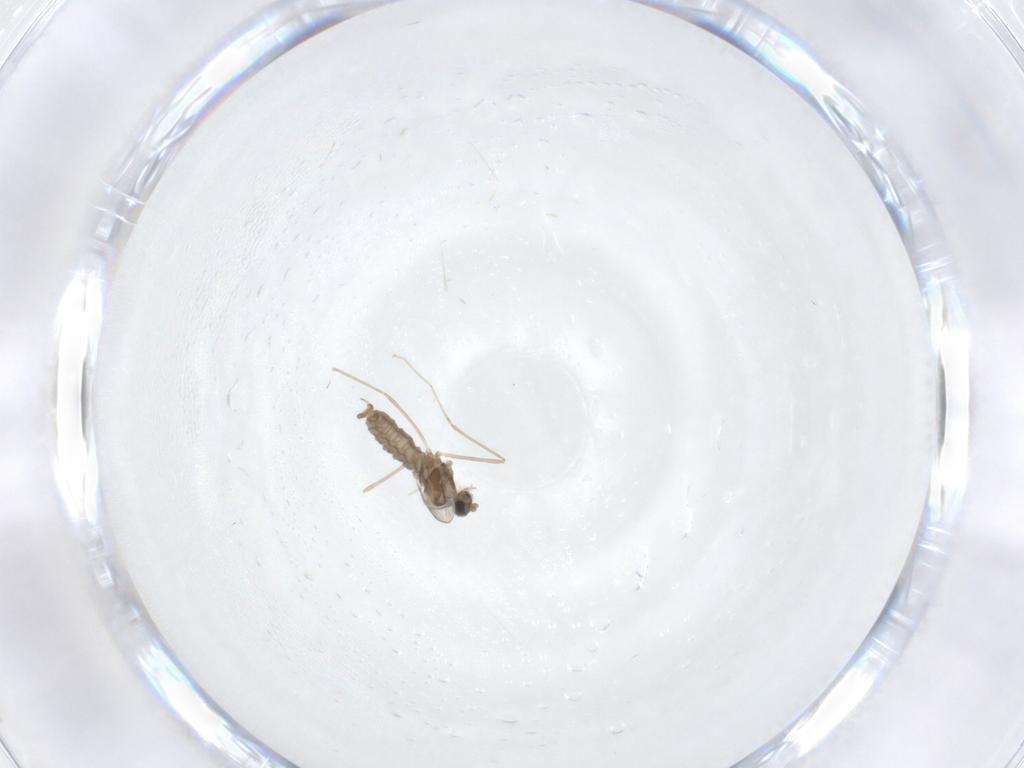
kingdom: Animalia
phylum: Arthropoda
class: Insecta
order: Diptera
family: Cecidomyiidae
